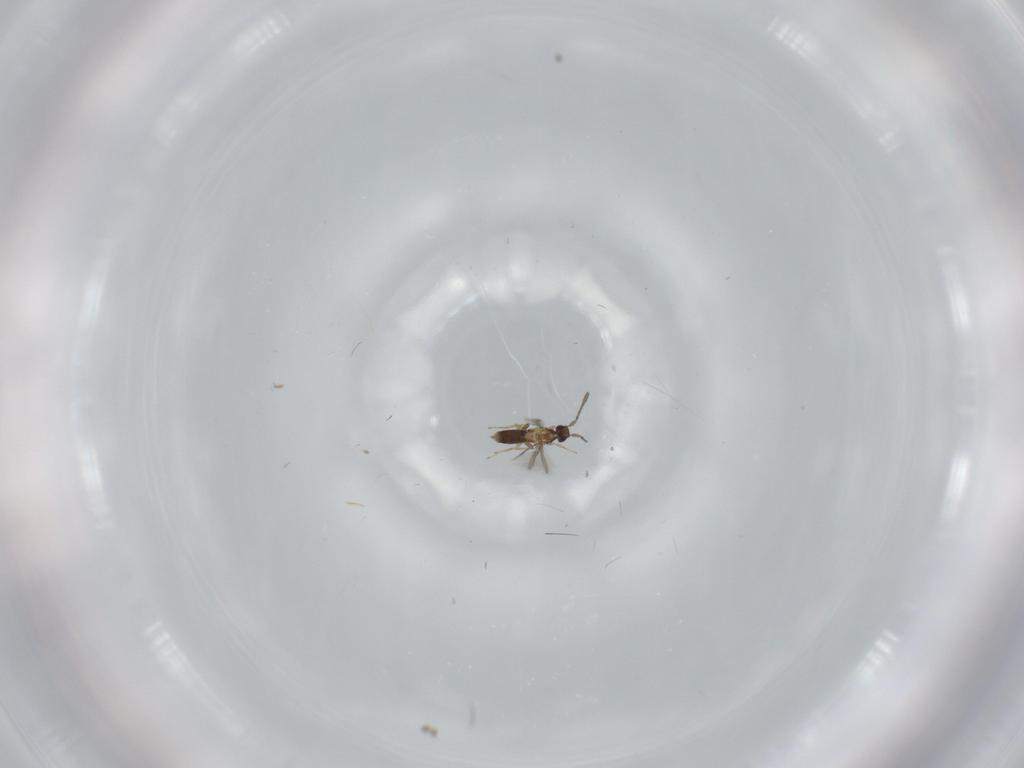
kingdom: Animalia
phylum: Arthropoda
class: Insecta
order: Hymenoptera
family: Mymaridae
